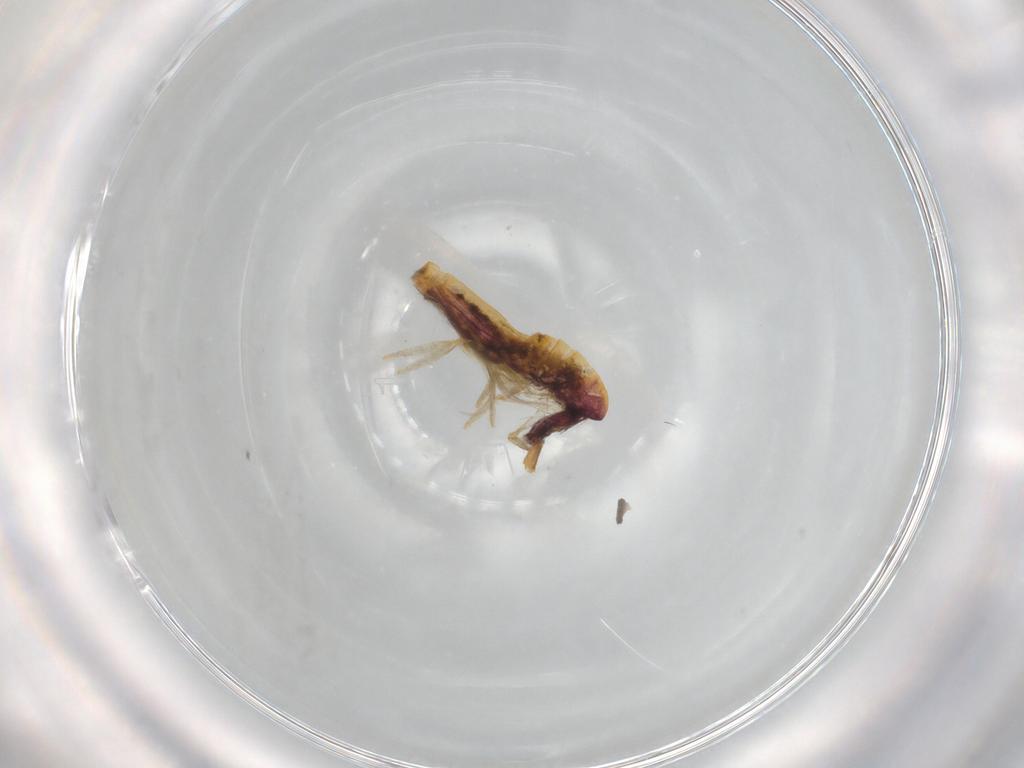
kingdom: Animalia
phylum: Arthropoda
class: Collembola
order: Entomobryomorpha
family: Entomobryidae
